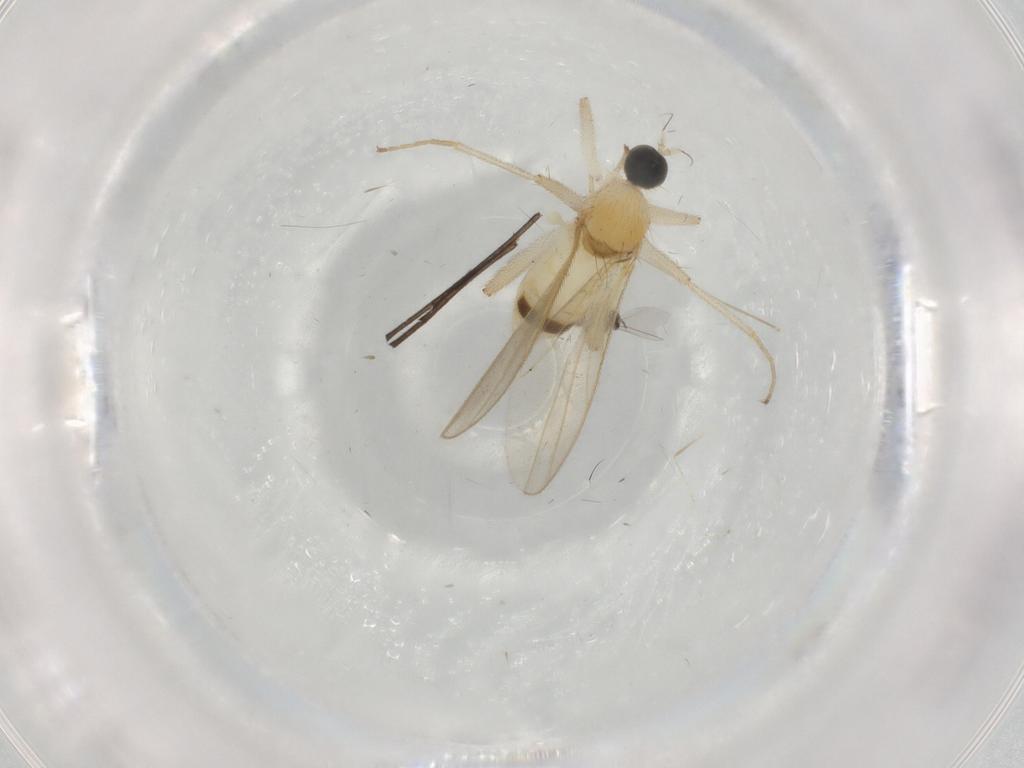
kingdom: Animalia
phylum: Arthropoda
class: Insecta
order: Diptera
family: Hybotidae
